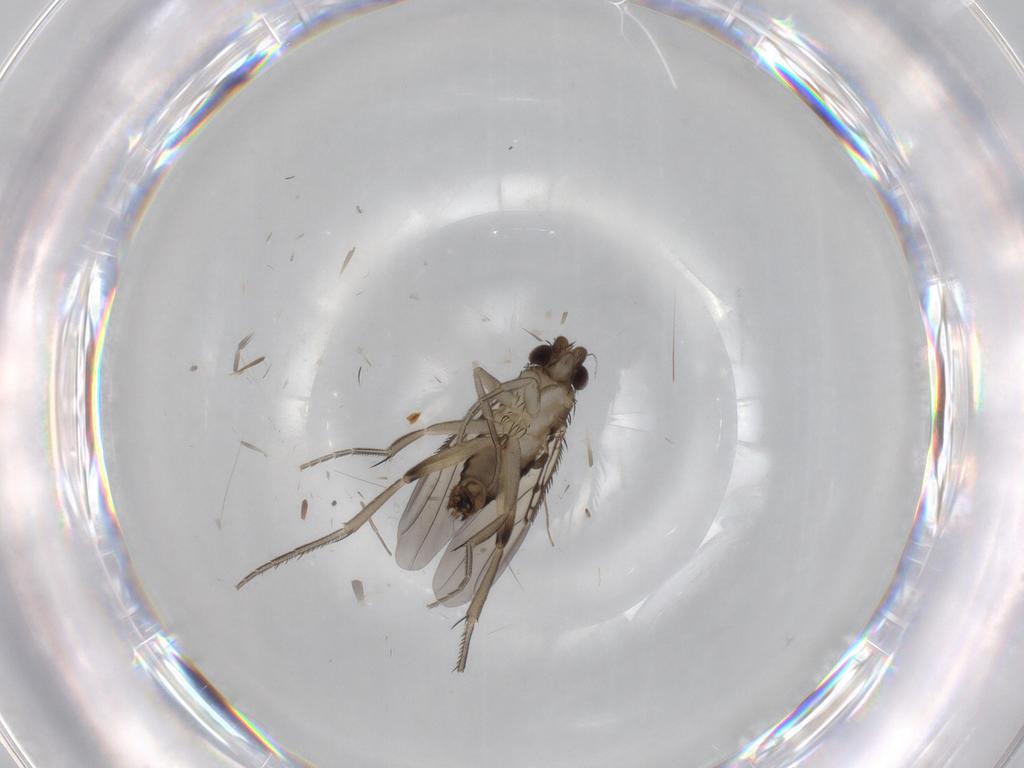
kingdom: Animalia
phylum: Arthropoda
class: Insecta
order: Diptera
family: Phoridae
